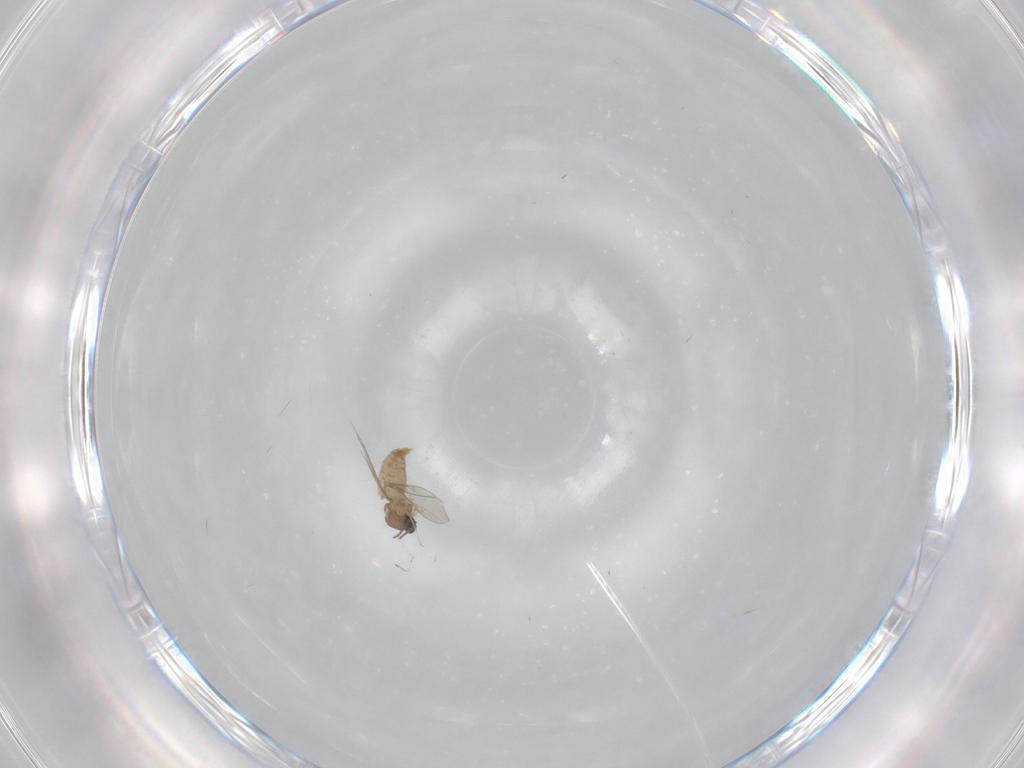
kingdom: Animalia
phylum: Arthropoda
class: Insecta
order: Diptera
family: Cecidomyiidae
